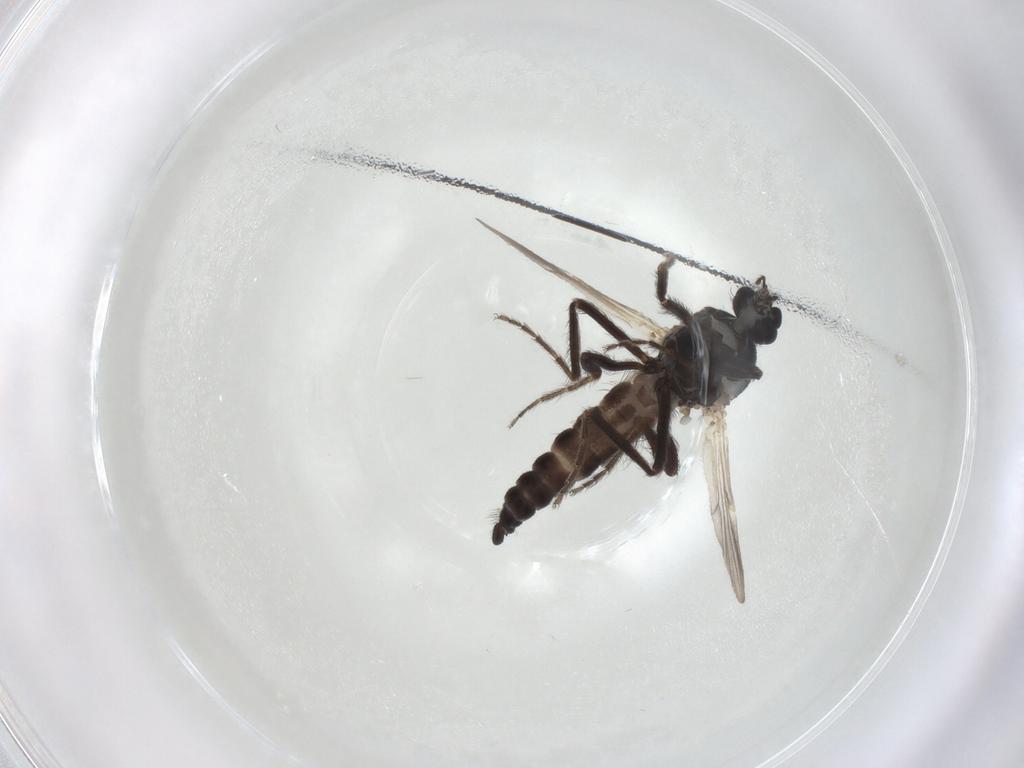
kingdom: Animalia
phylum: Arthropoda
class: Insecta
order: Diptera
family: Ceratopogonidae
